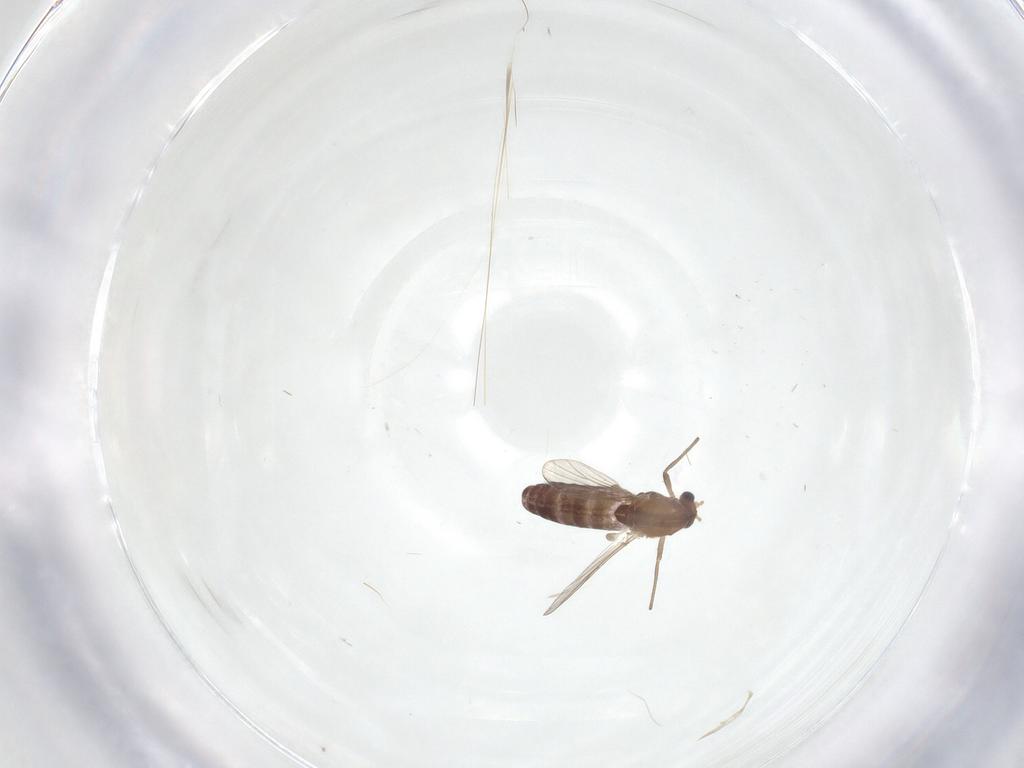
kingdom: Animalia
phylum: Arthropoda
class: Insecta
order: Diptera
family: Chironomidae
